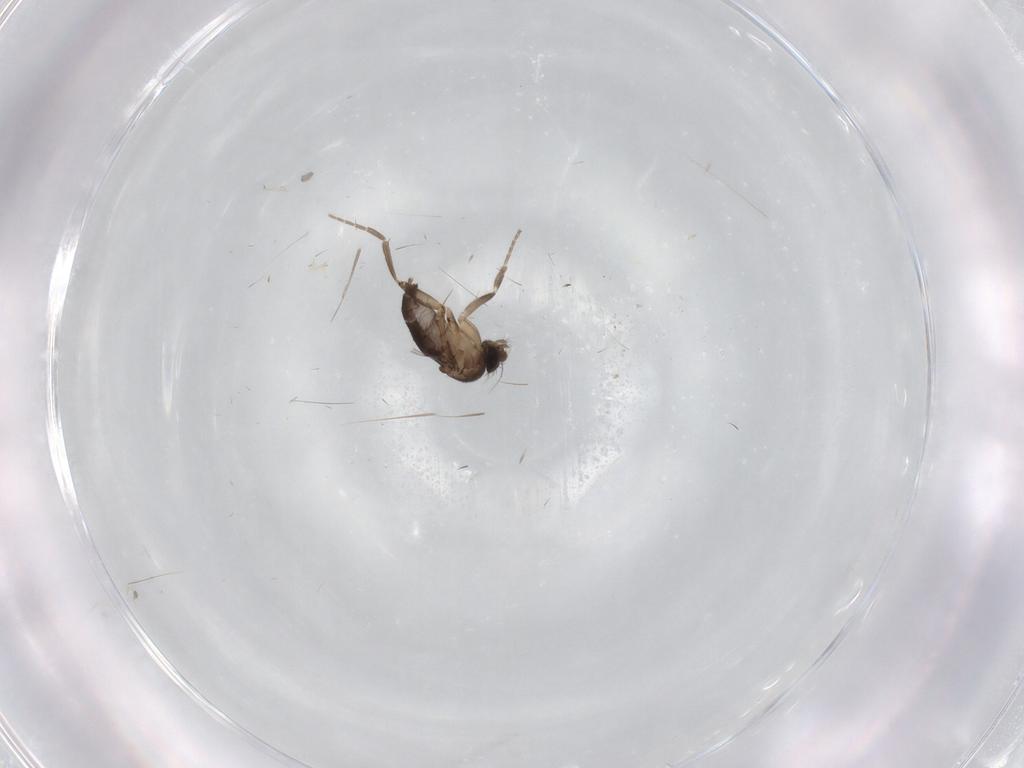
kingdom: Animalia
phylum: Arthropoda
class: Insecta
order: Diptera
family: Phoridae
